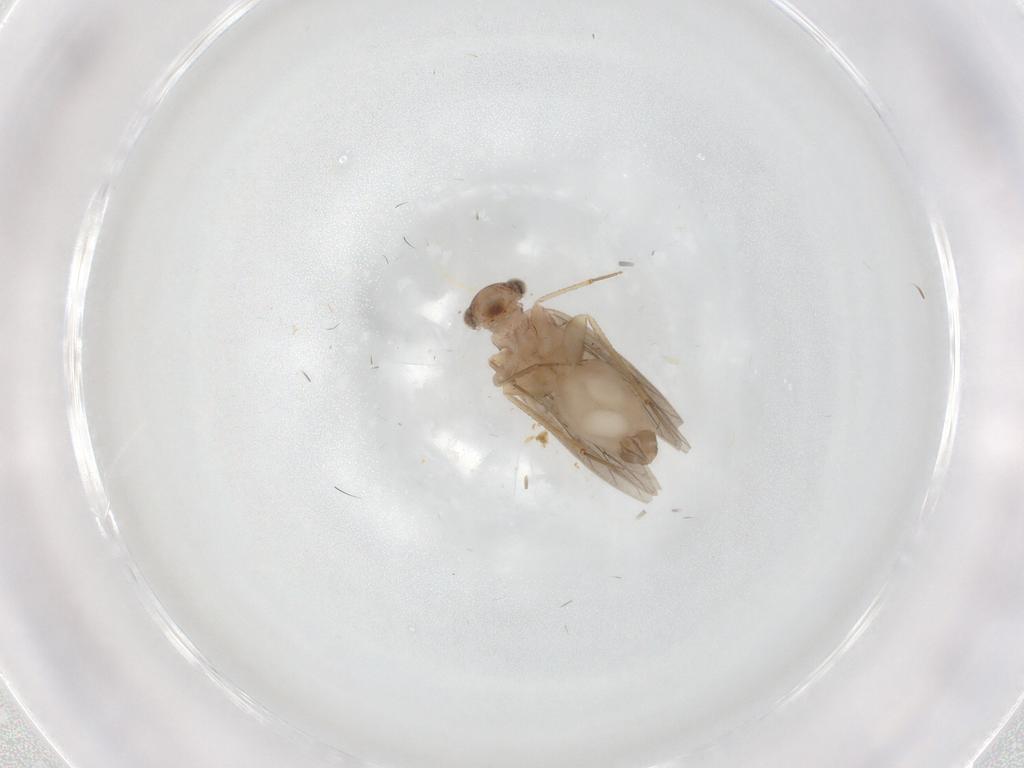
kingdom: Animalia
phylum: Arthropoda
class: Insecta
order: Psocodea
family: Lepidopsocidae
